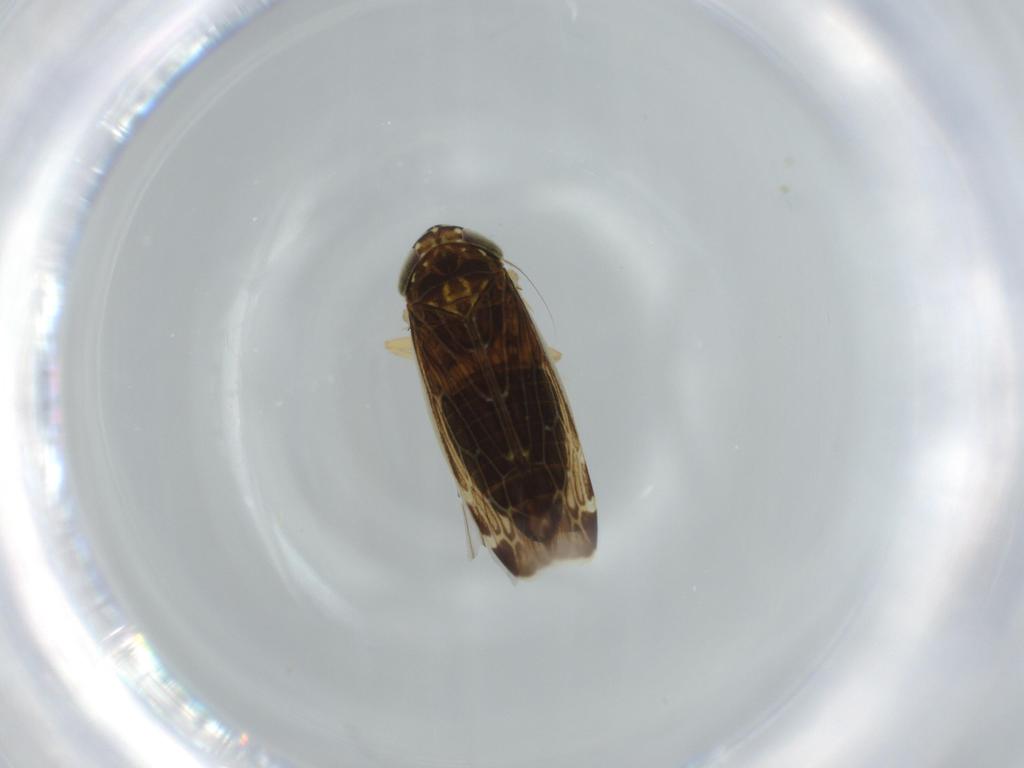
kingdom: Animalia
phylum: Arthropoda
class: Insecta
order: Hemiptera
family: Cicadellidae
